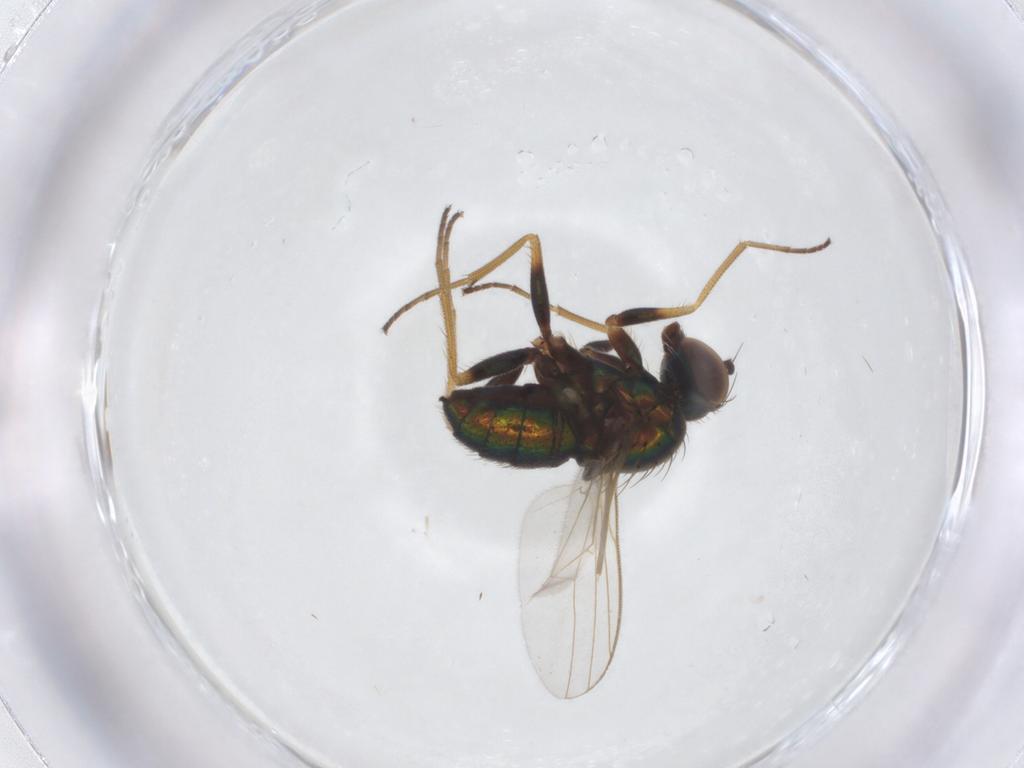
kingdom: Animalia
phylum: Arthropoda
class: Insecta
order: Diptera
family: Dolichopodidae
